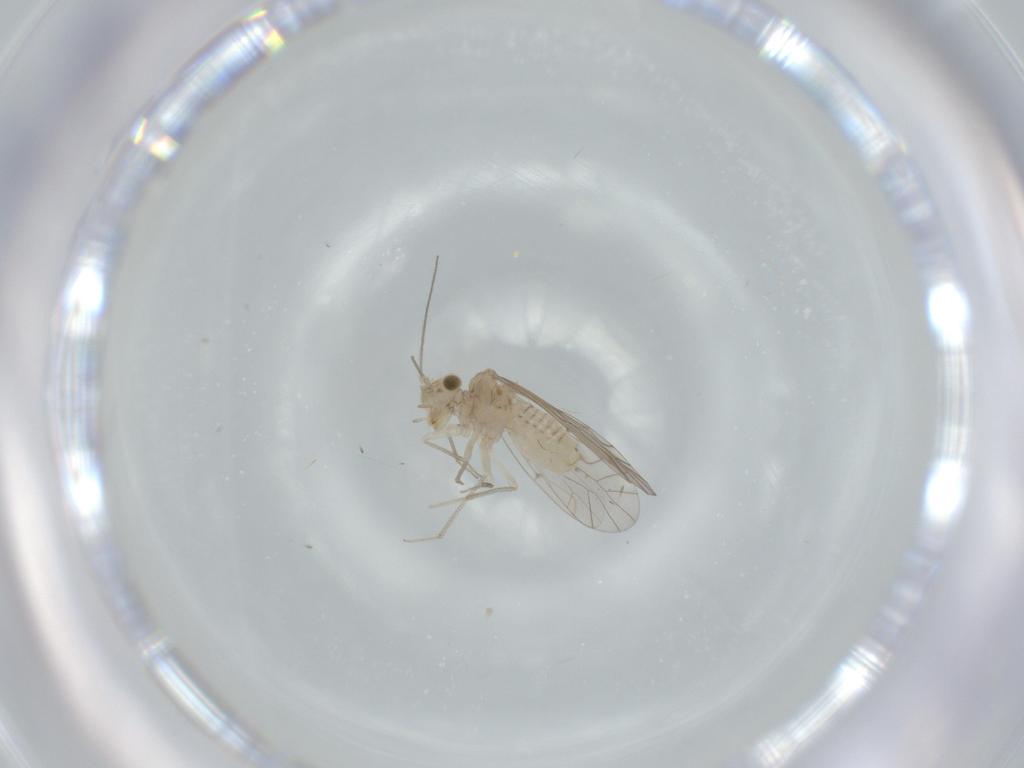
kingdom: Animalia
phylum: Arthropoda
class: Insecta
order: Psocodea
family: Lachesillidae
